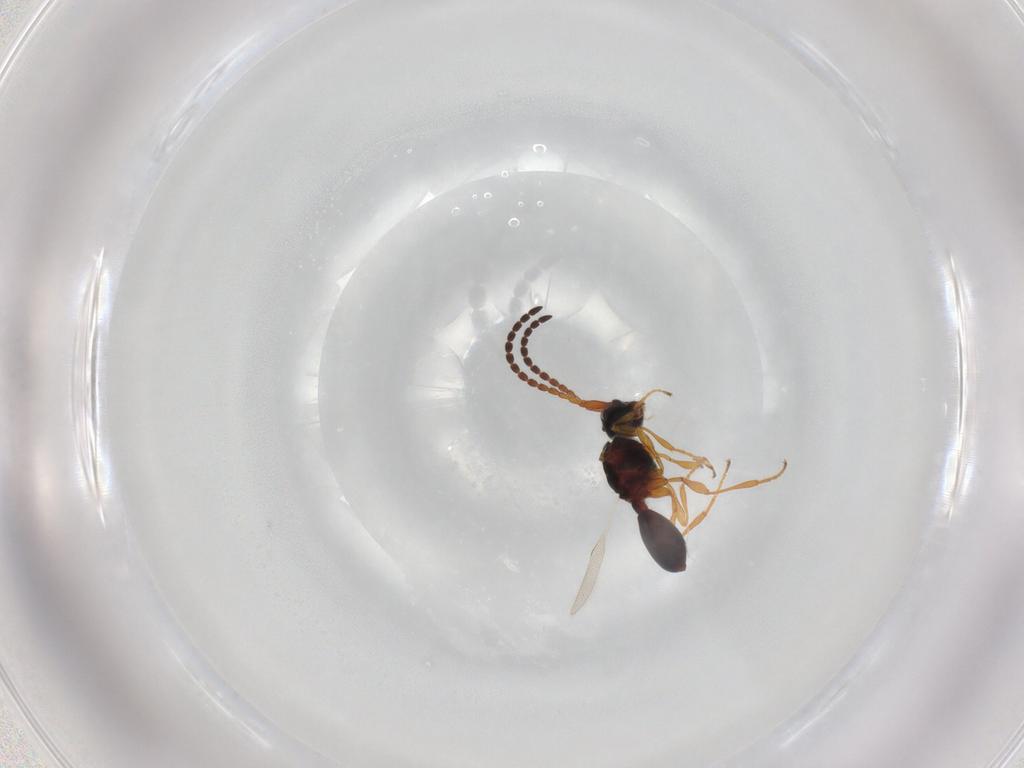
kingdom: Animalia
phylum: Arthropoda
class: Insecta
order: Hymenoptera
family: Diapriidae
